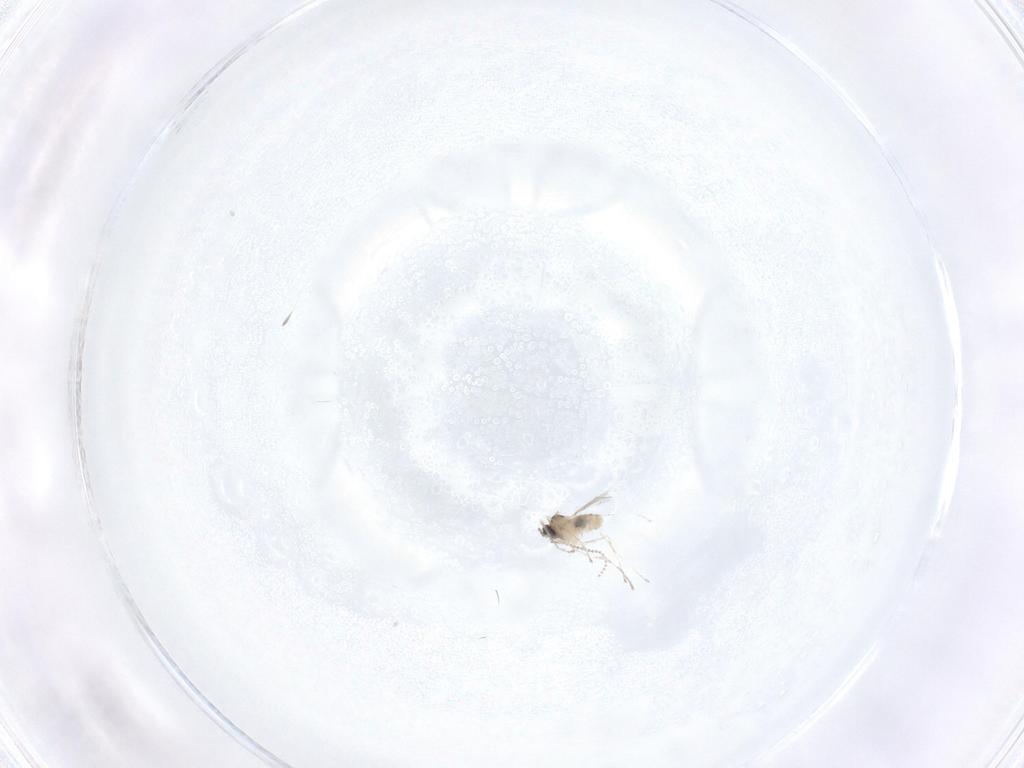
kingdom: Animalia
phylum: Arthropoda
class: Insecta
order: Diptera
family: Cecidomyiidae
